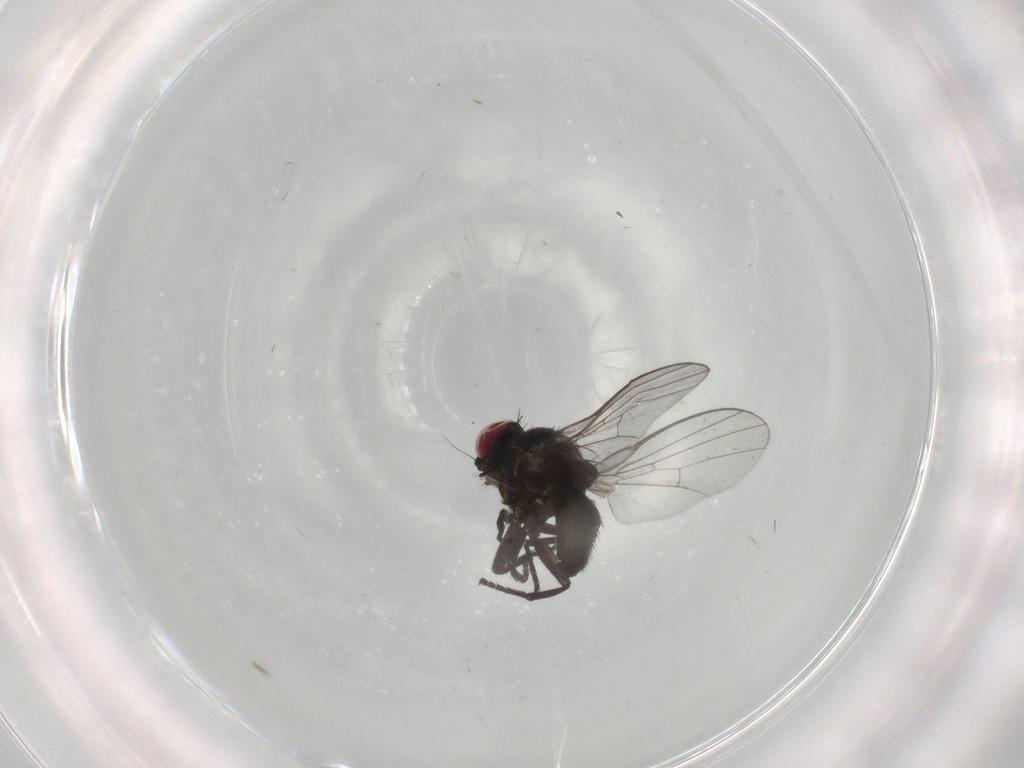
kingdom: Animalia
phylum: Arthropoda
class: Insecta
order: Diptera
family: Agromyzidae
